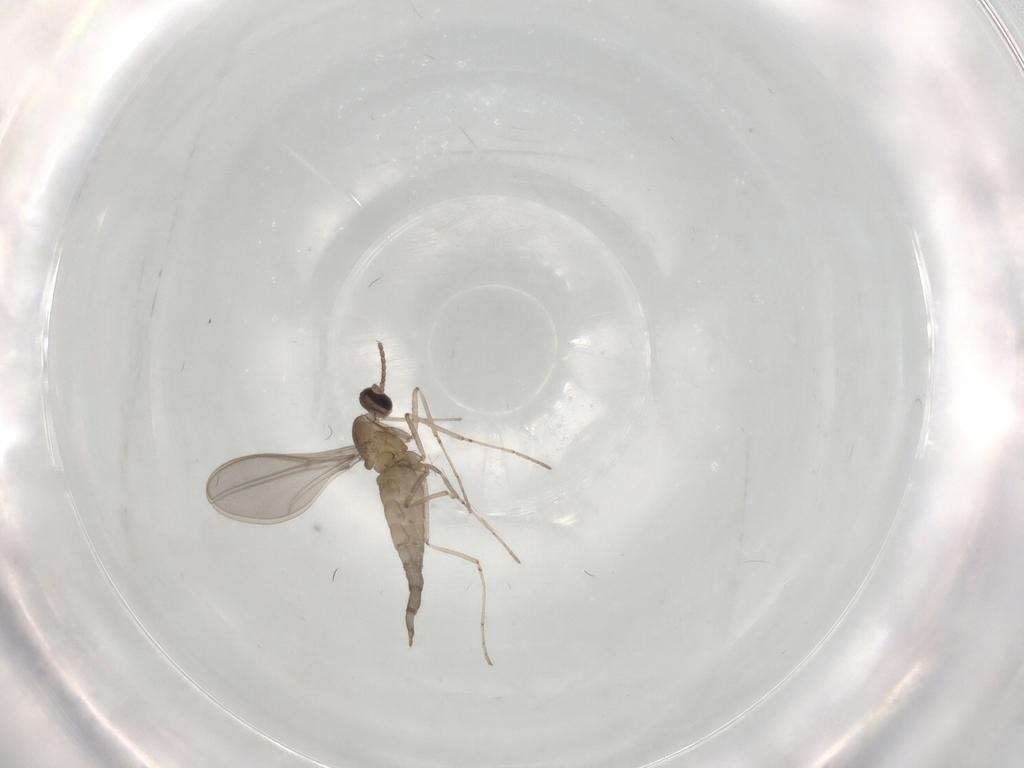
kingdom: Animalia
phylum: Arthropoda
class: Insecta
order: Diptera
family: Cecidomyiidae
